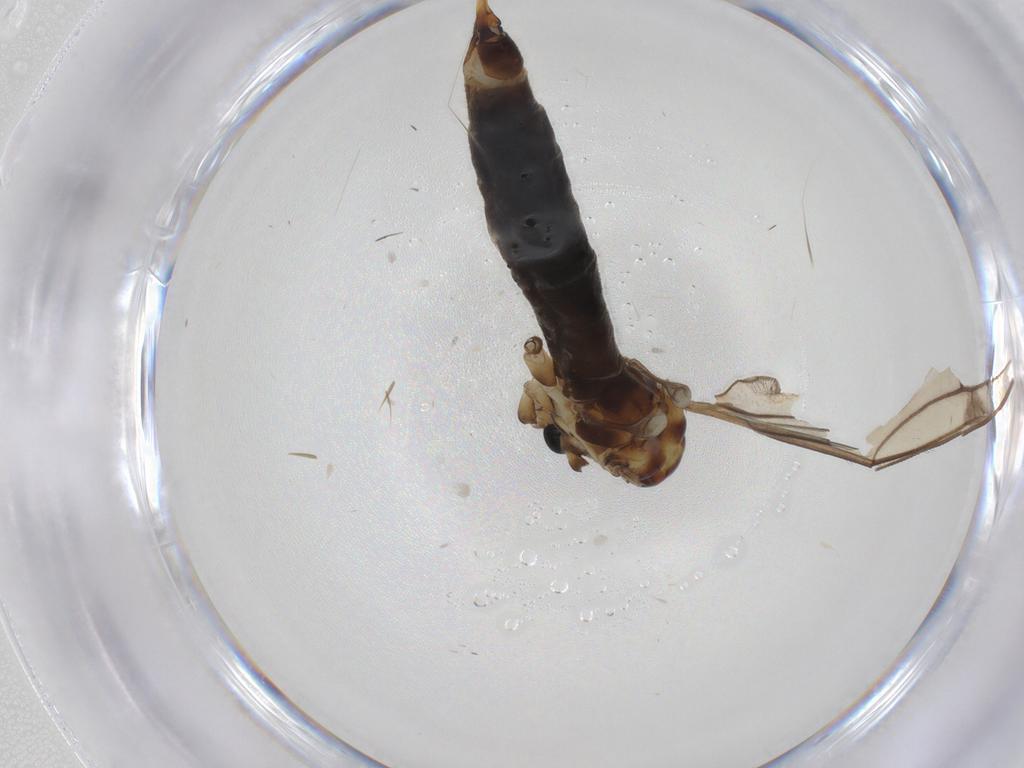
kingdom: Animalia
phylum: Arthropoda
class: Insecta
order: Diptera
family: Limoniidae
